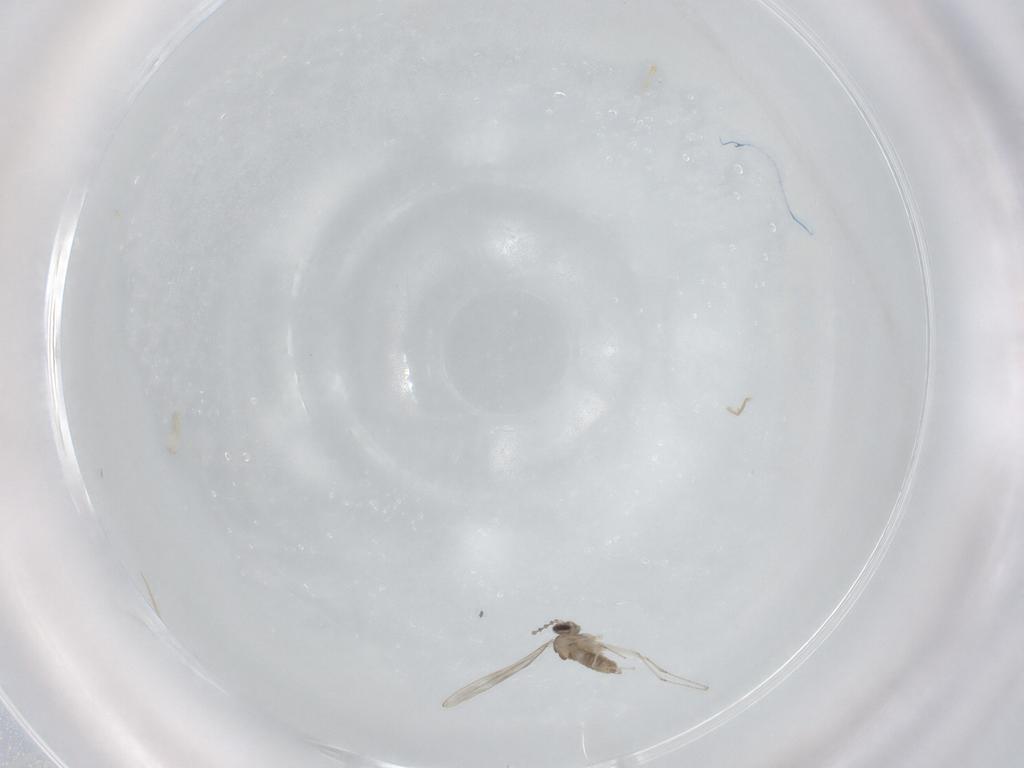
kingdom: Animalia
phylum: Arthropoda
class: Insecta
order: Diptera
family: Cecidomyiidae
